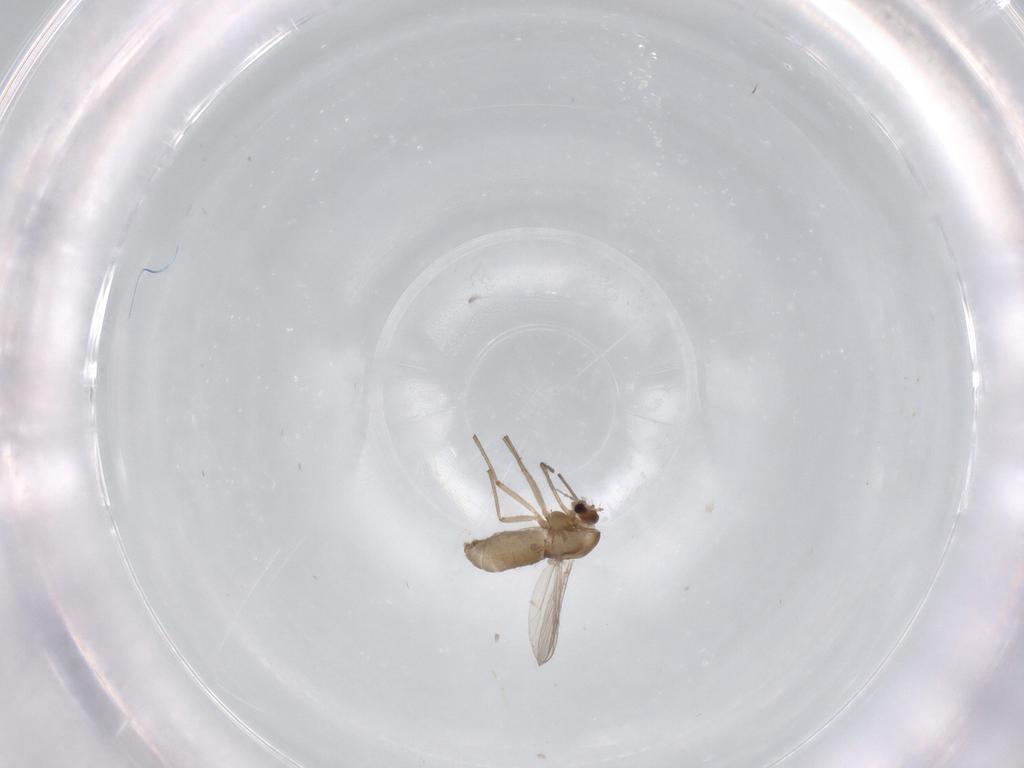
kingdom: Animalia
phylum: Arthropoda
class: Insecta
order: Diptera
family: Chironomidae
